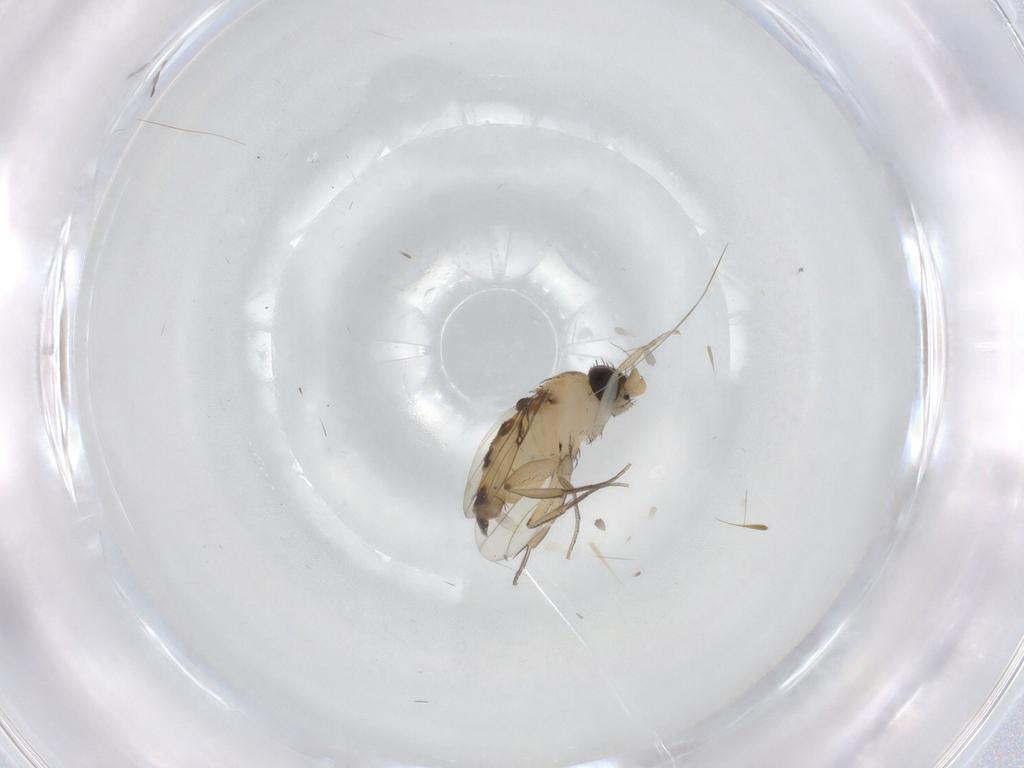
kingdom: Animalia
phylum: Arthropoda
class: Insecta
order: Diptera
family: Phoridae
